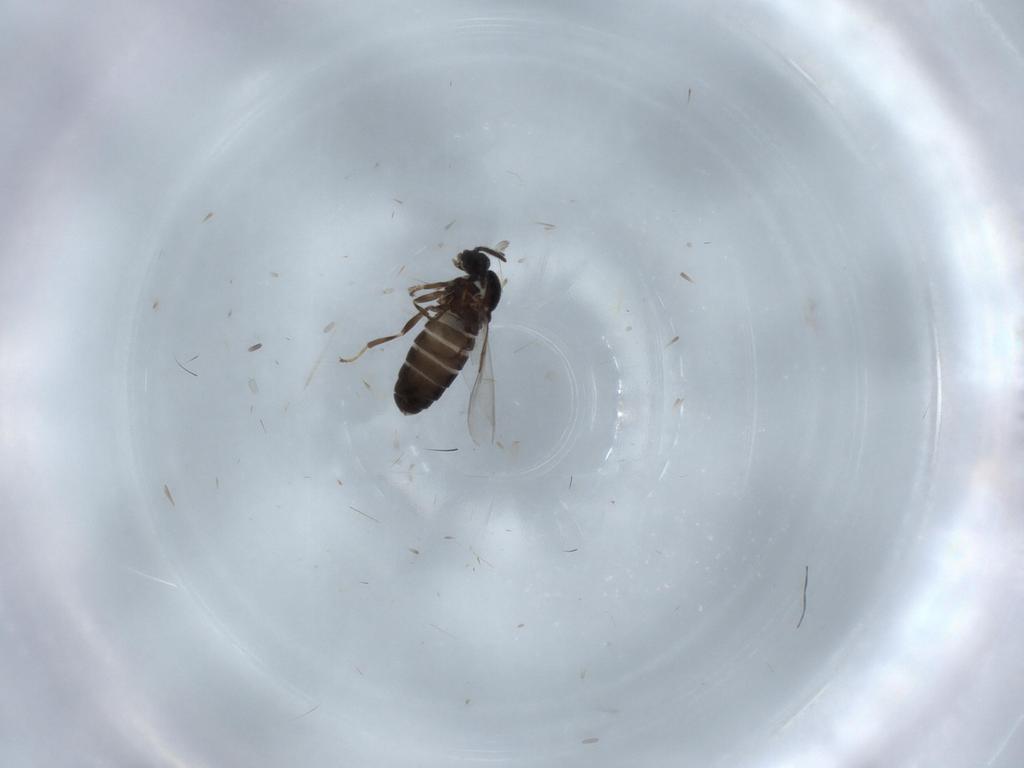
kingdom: Animalia
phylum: Arthropoda
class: Insecta
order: Diptera
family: Scatopsidae
